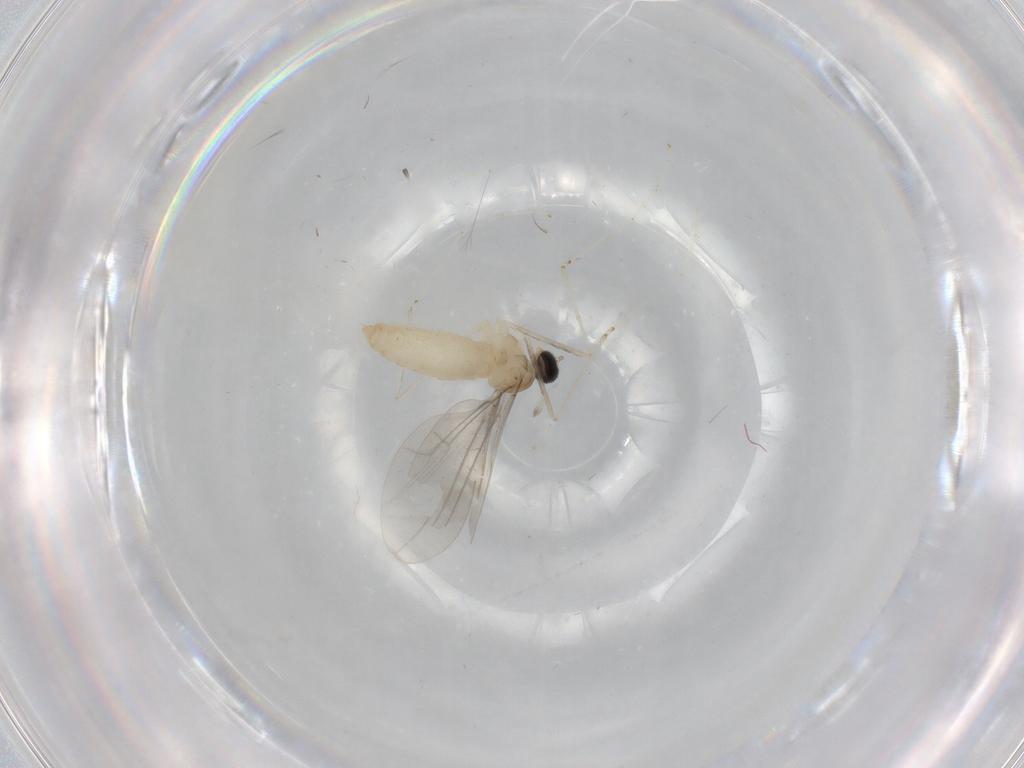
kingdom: Animalia
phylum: Arthropoda
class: Insecta
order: Diptera
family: Cecidomyiidae
